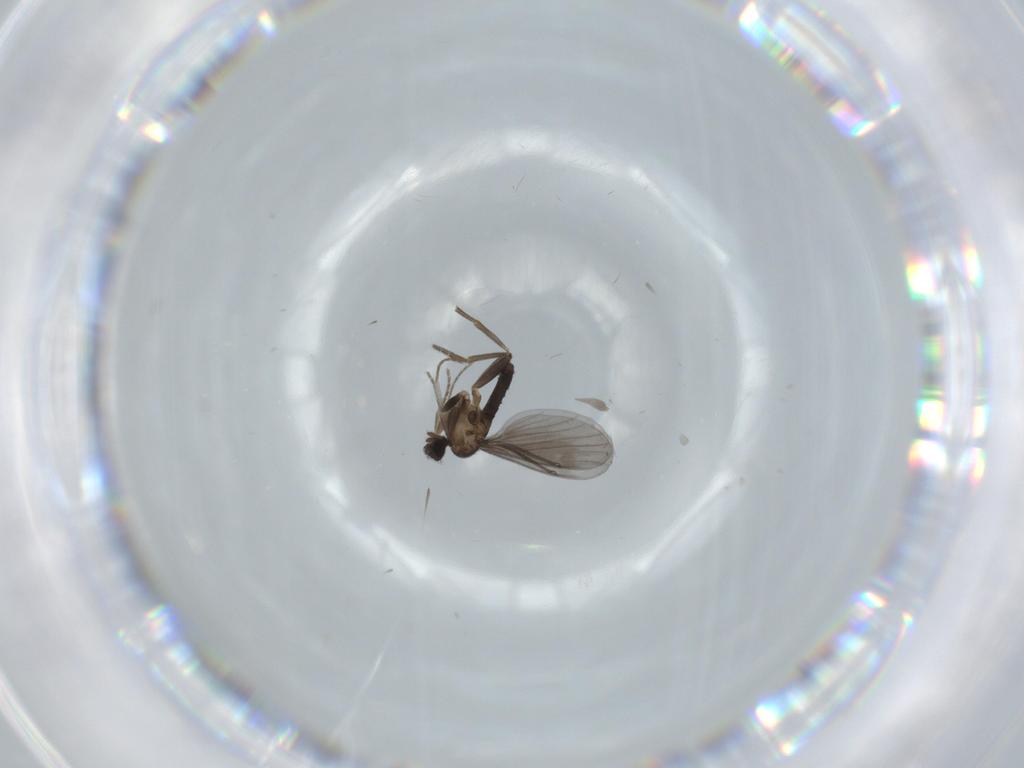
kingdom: Animalia
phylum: Arthropoda
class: Insecta
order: Diptera
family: Phoridae
